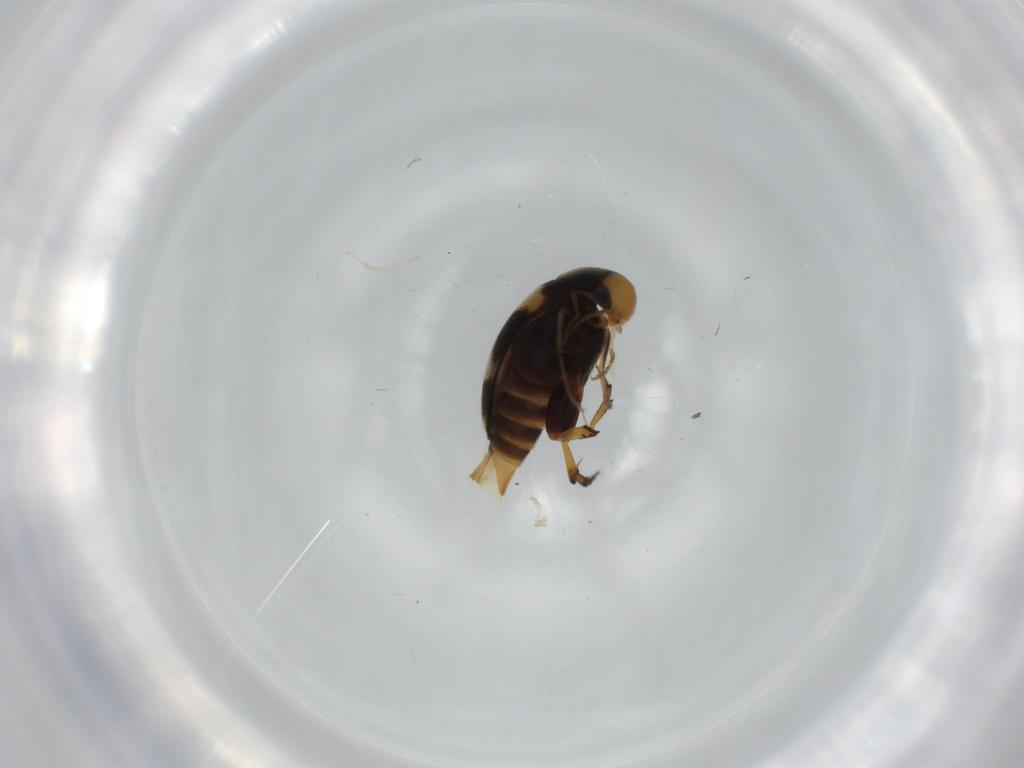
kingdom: Animalia
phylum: Arthropoda
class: Insecta
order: Coleoptera
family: Mordellidae
